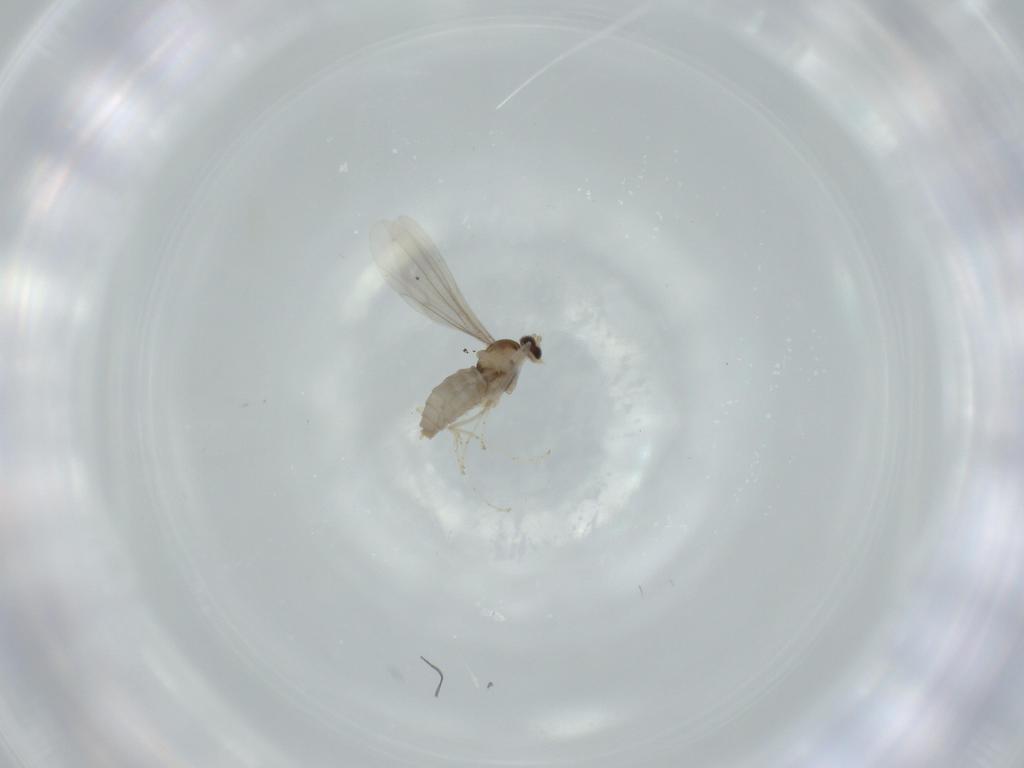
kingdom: Animalia
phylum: Arthropoda
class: Insecta
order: Diptera
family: Cecidomyiidae
